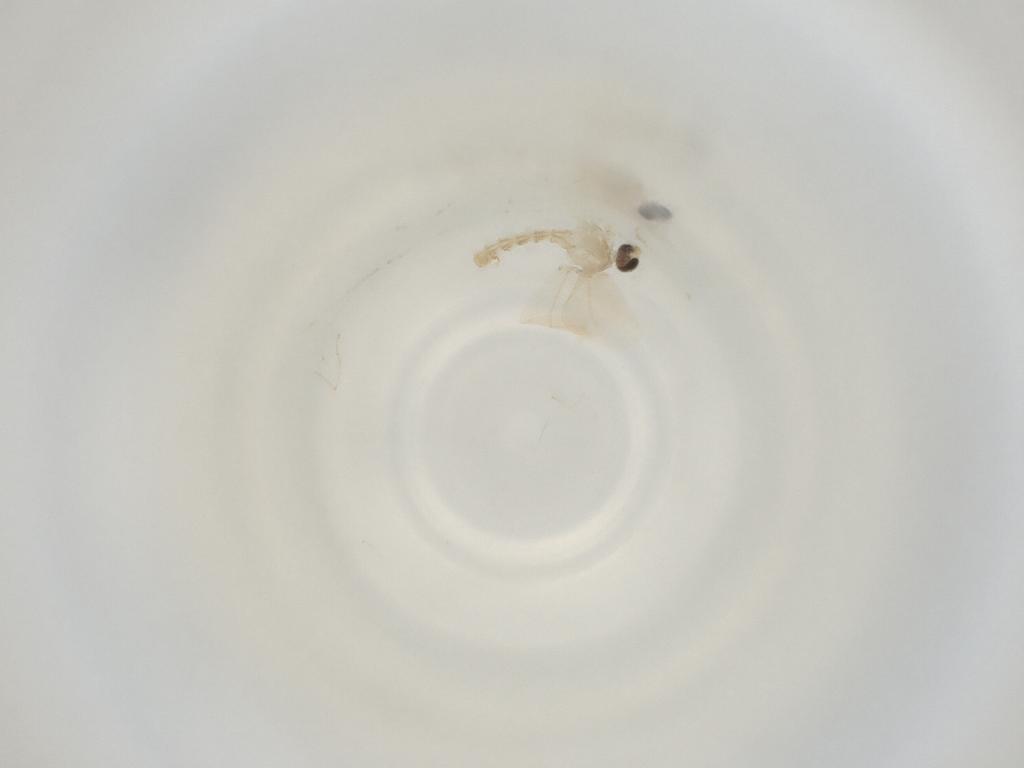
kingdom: Animalia
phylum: Arthropoda
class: Insecta
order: Diptera
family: Cecidomyiidae
